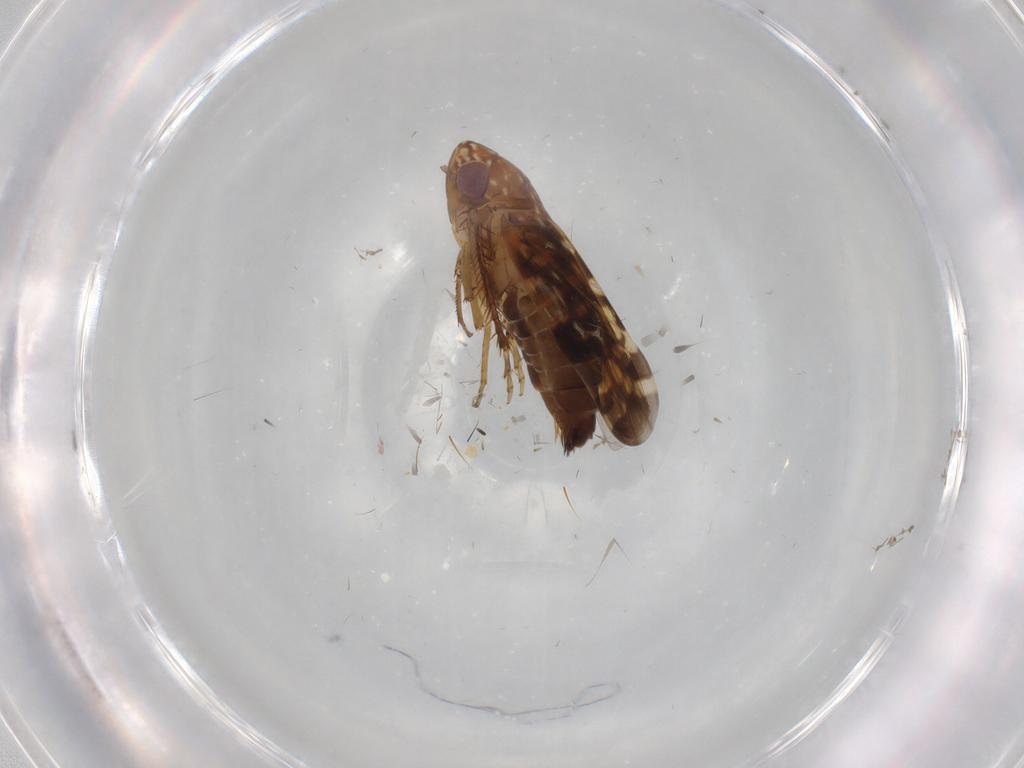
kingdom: Animalia
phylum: Arthropoda
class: Insecta
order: Hemiptera
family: Cicadellidae
